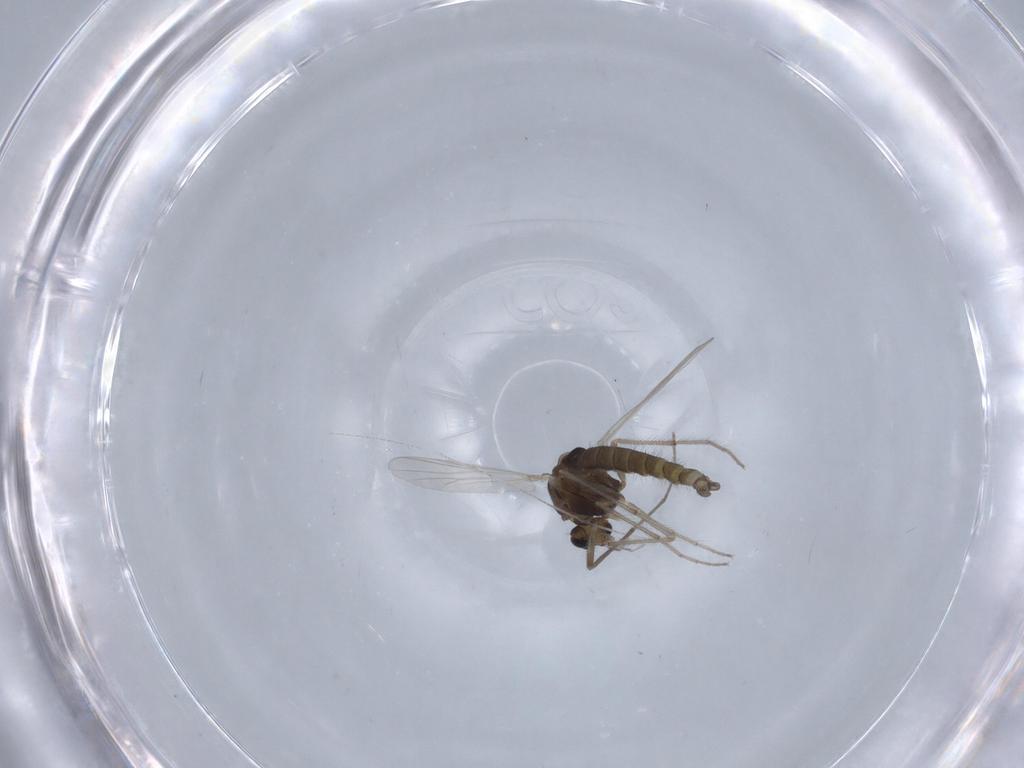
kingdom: Animalia
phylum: Arthropoda
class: Insecta
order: Diptera
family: Chironomidae
